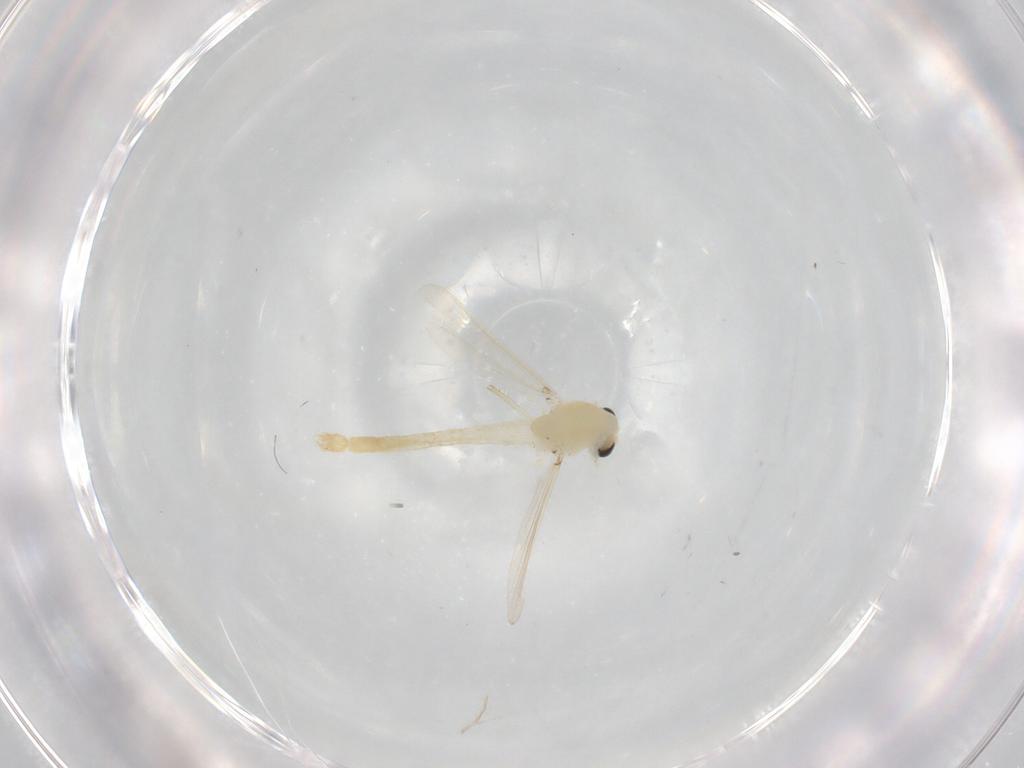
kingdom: Animalia
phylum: Arthropoda
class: Insecta
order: Diptera
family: Chironomidae
